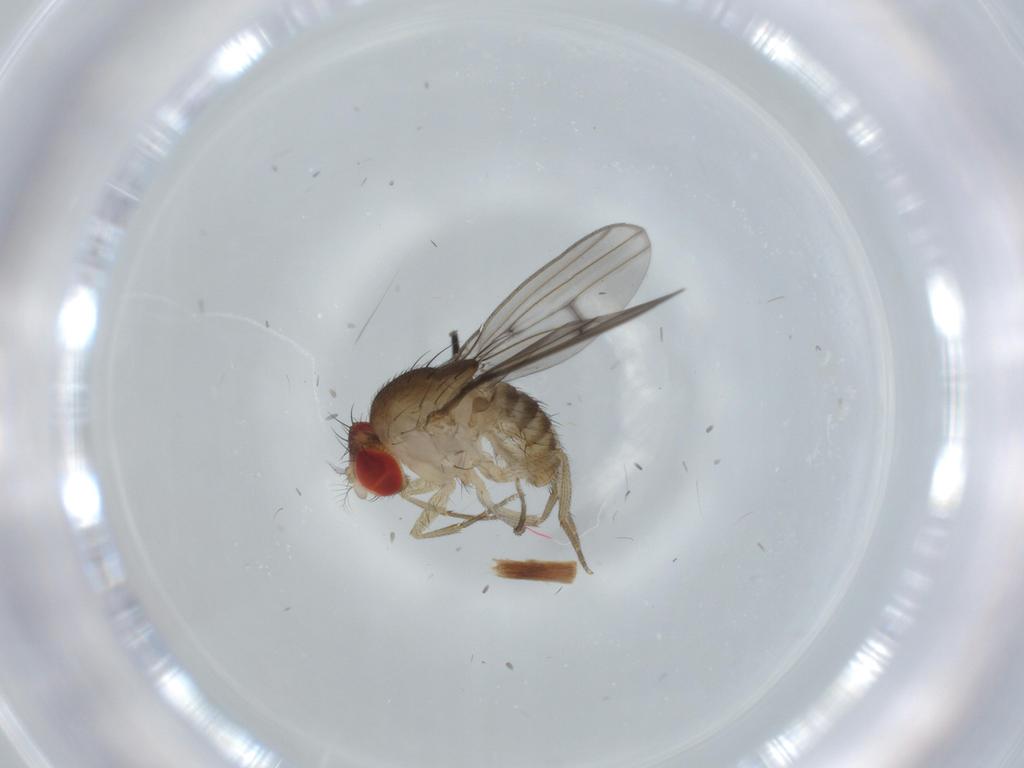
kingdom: Animalia
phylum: Arthropoda
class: Insecta
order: Diptera
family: Drosophilidae
